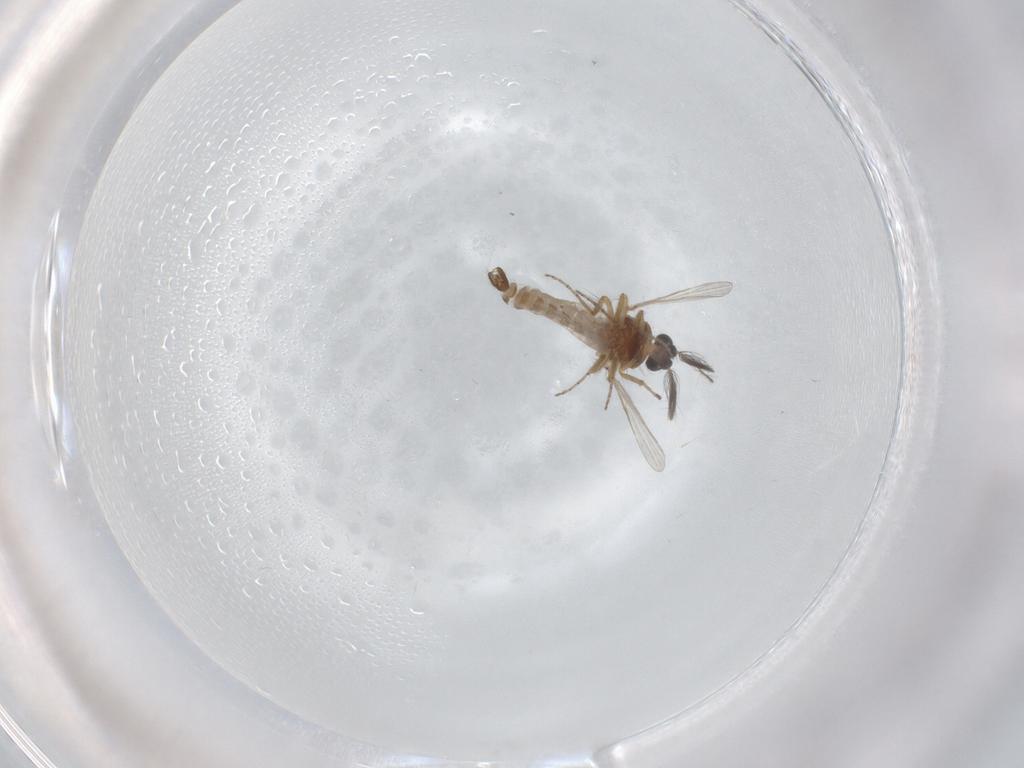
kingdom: Animalia
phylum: Arthropoda
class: Insecta
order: Diptera
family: Ceratopogonidae
